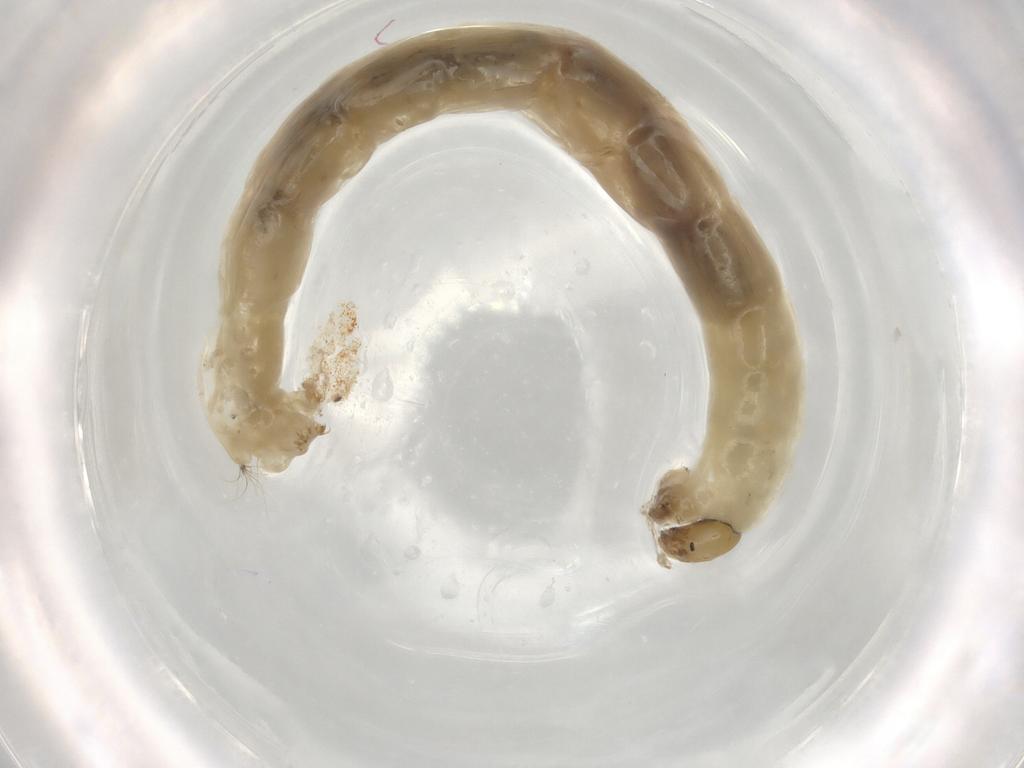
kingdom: Animalia
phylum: Arthropoda
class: Insecta
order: Diptera
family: Chironomidae
